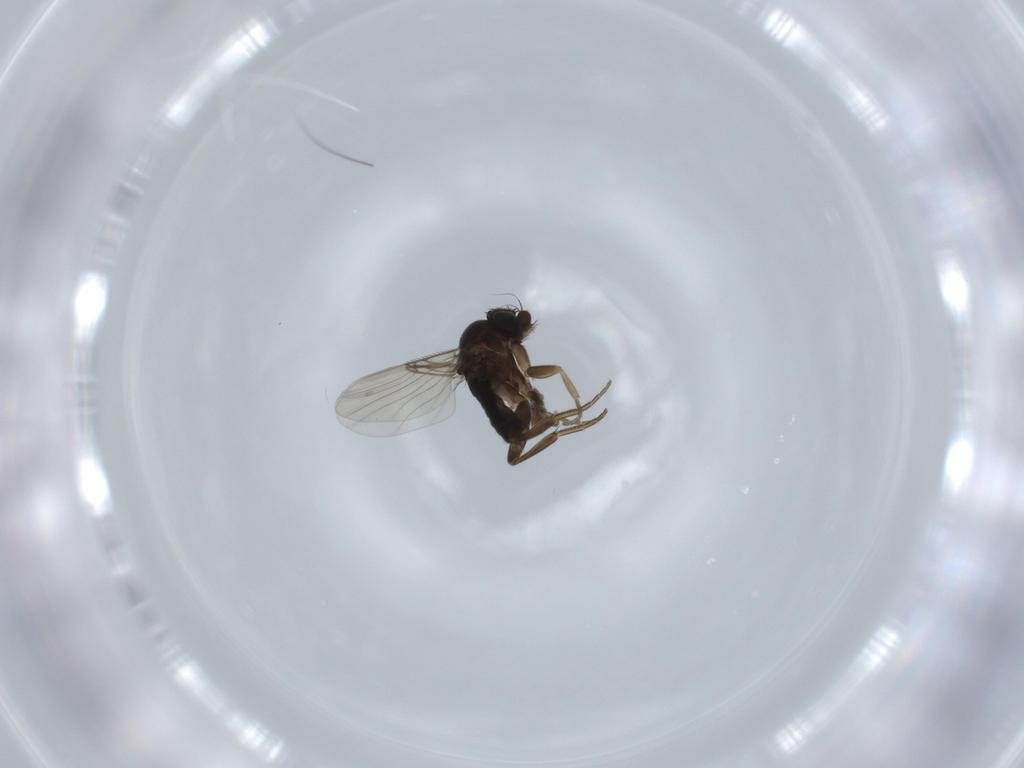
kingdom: Animalia
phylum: Arthropoda
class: Insecta
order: Diptera
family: Phoridae
